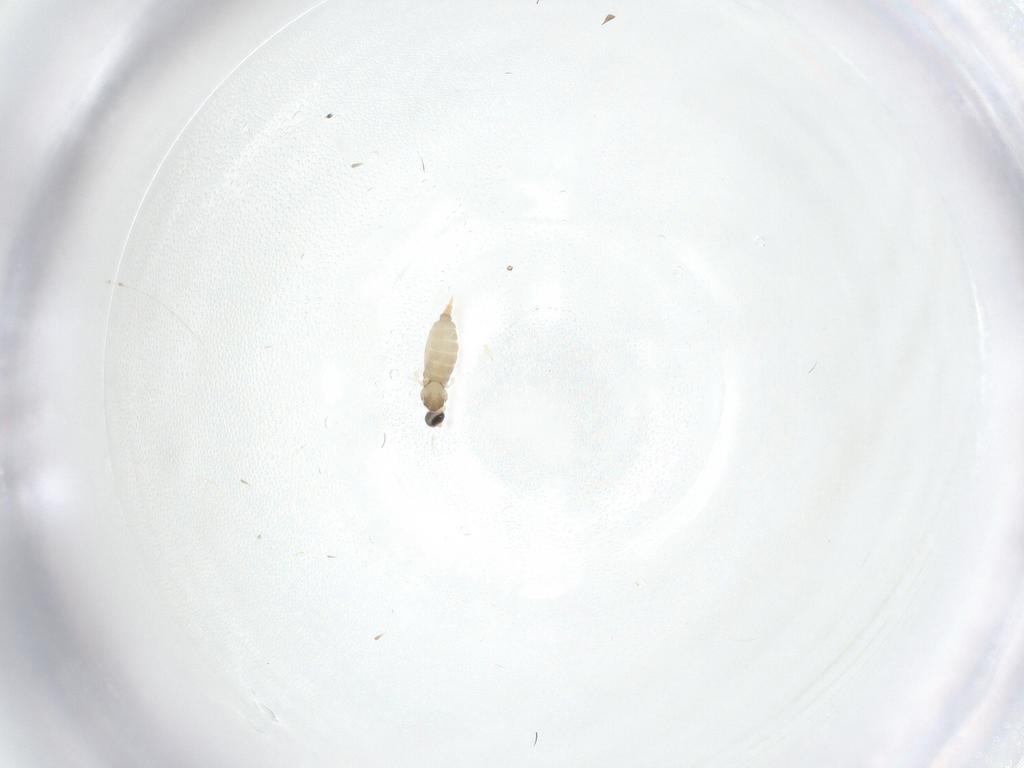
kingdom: Animalia
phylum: Arthropoda
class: Insecta
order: Diptera
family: Cecidomyiidae
